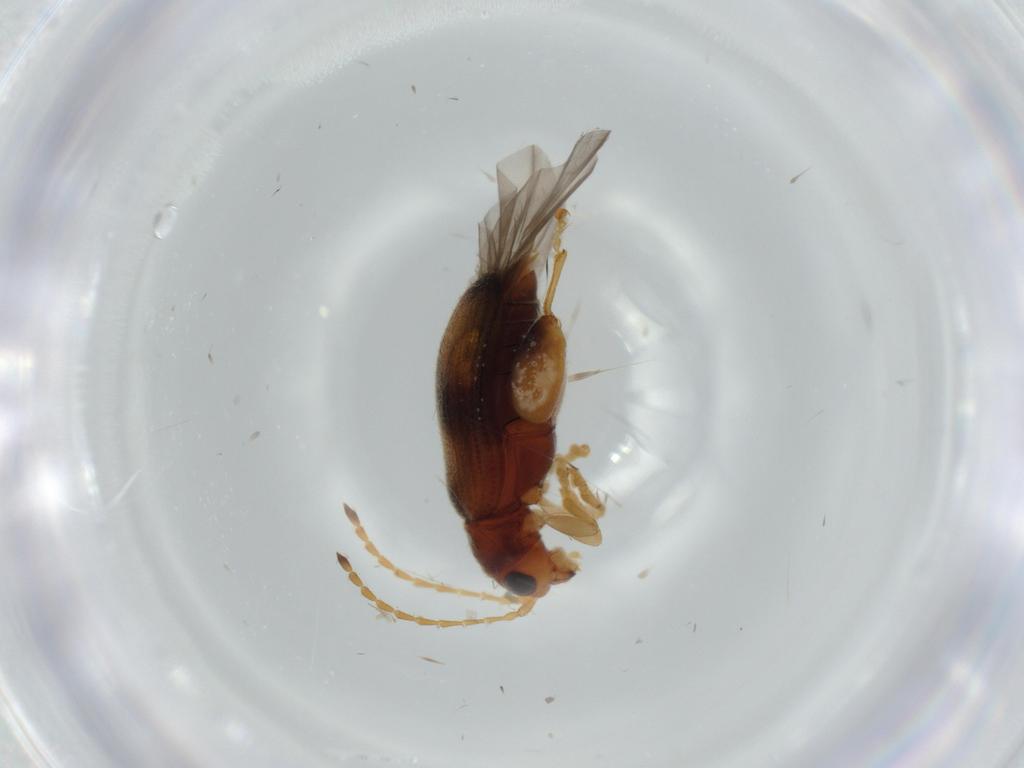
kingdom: Animalia
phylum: Arthropoda
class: Insecta
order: Coleoptera
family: Chrysomelidae
